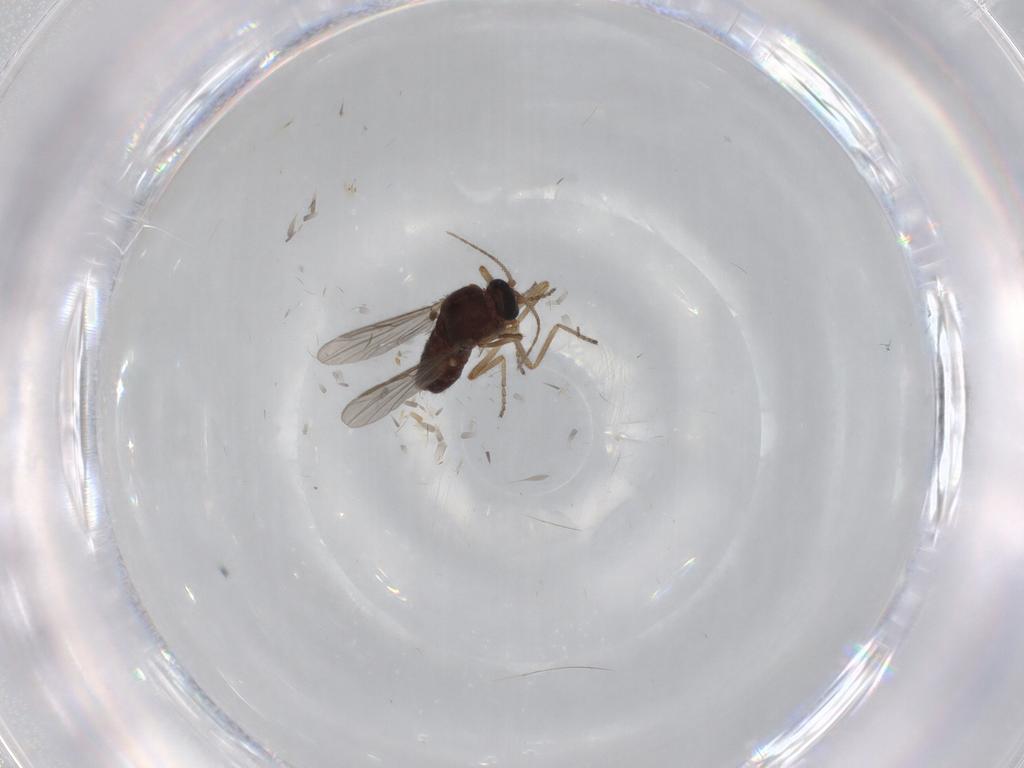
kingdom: Animalia
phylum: Arthropoda
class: Insecta
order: Diptera
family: Ceratopogonidae
